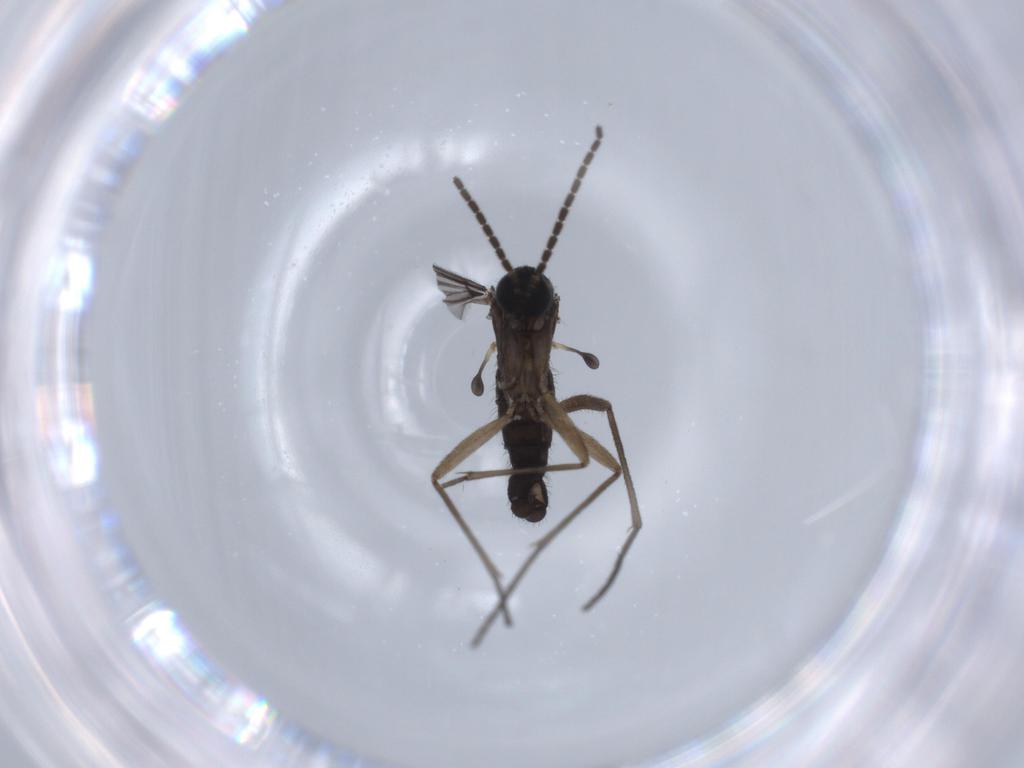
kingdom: Animalia
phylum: Arthropoda
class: Insecta
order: Diptera
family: Sciaridae
